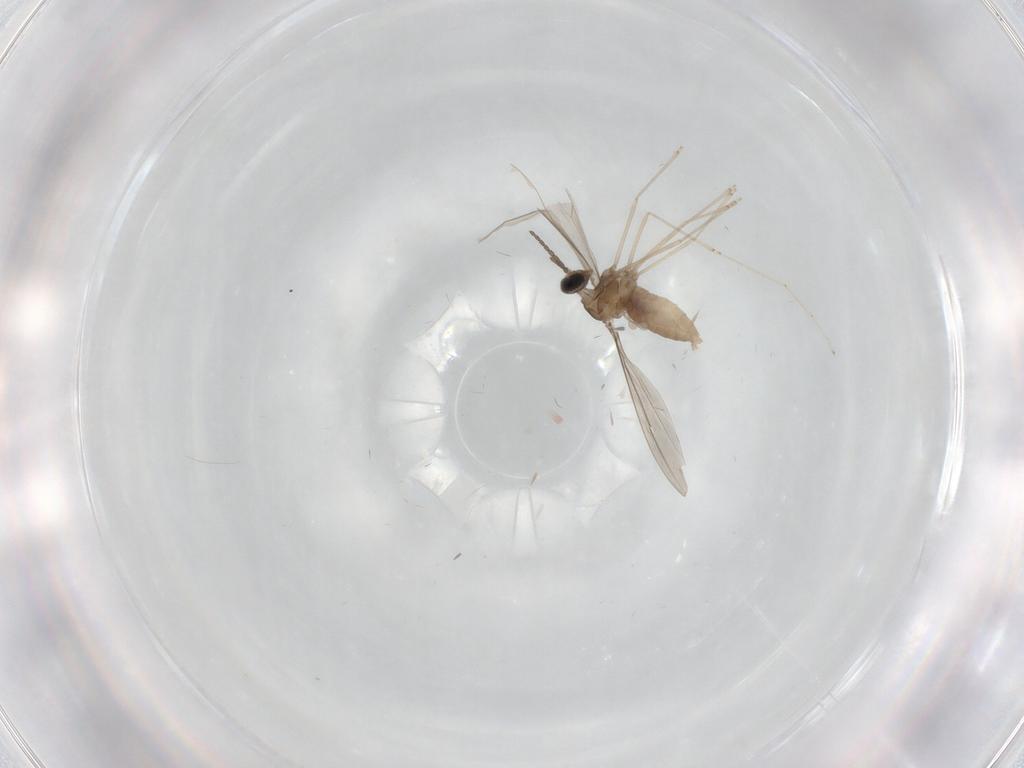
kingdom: Animalia
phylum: Arthropoda
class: Insecta
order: Diptera
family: Cecidomyiidae
